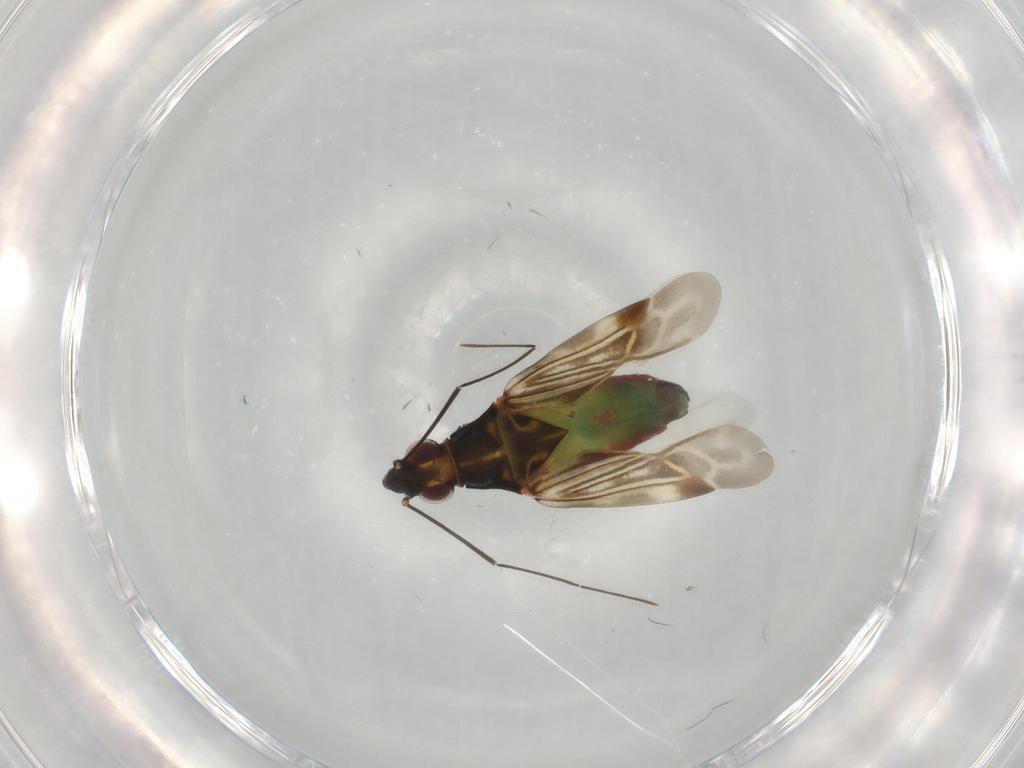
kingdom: Animalia
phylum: Arthropoda
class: Insecta
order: Hemiptera
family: Miridae
